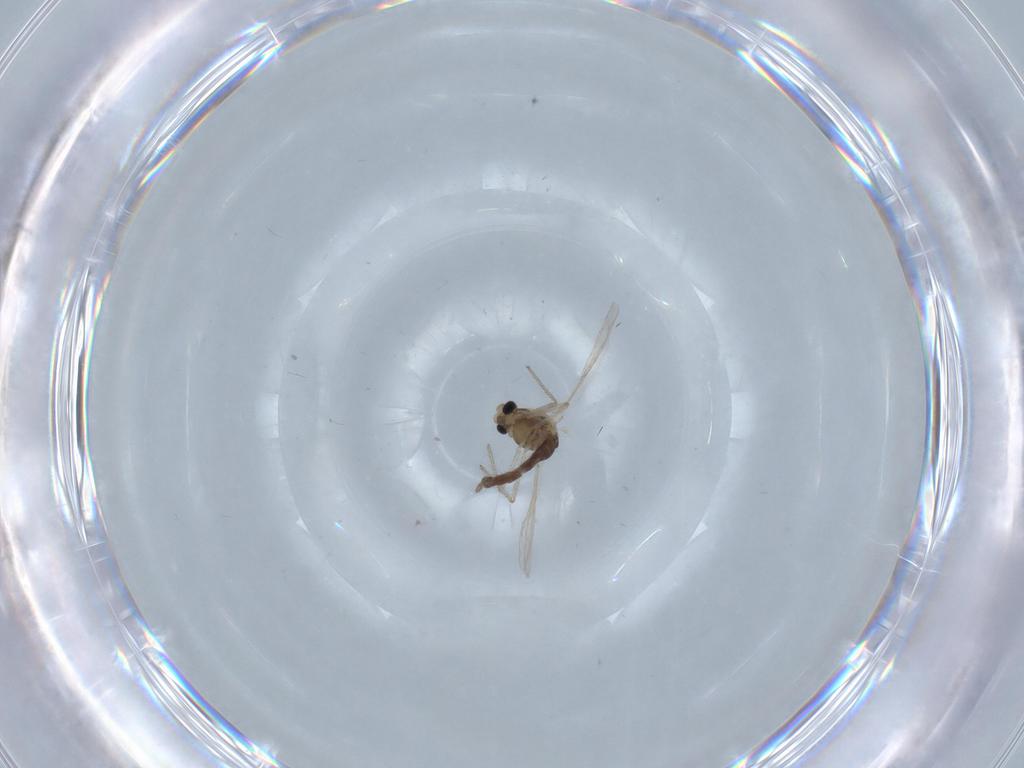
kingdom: Animalia
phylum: Arthropoda
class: Insecta
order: Diptera
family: Chironomidae
